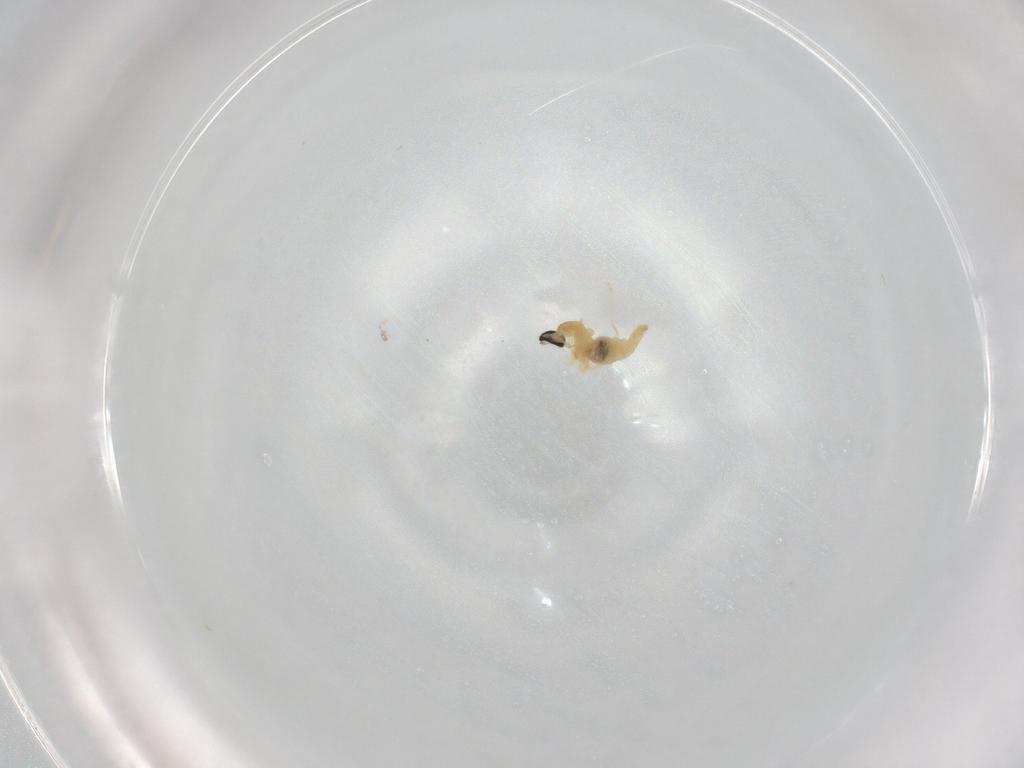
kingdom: Animalia
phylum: Arthropoda
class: Insecta
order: Diptera
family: Cecidomyiidae
